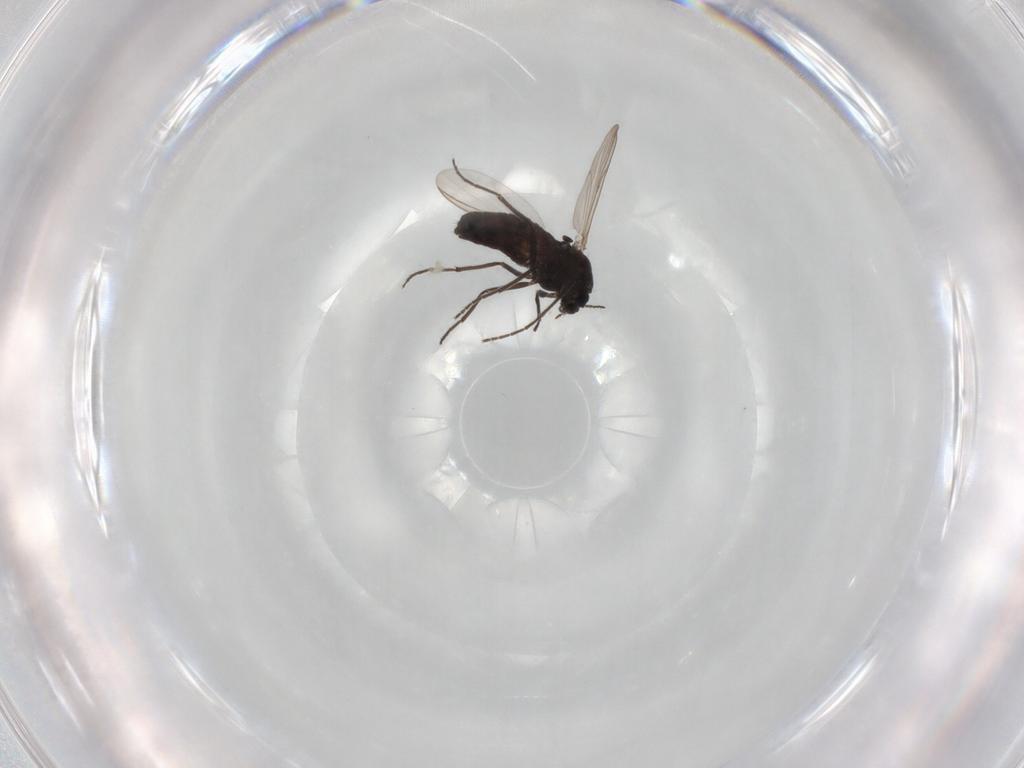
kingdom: Animalia
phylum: Arthropoda
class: Insecta
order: Diptera
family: Chironomidae
